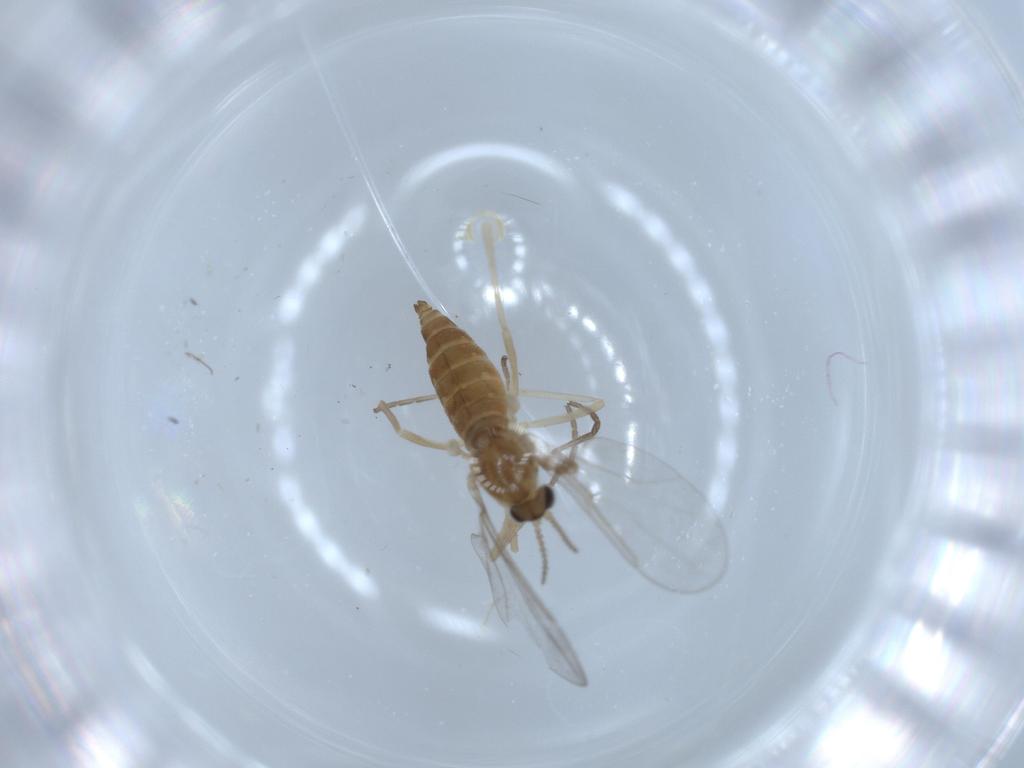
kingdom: Animalia
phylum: Arthropoda
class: Insecta
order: Diptera
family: Cecidomyiidae
